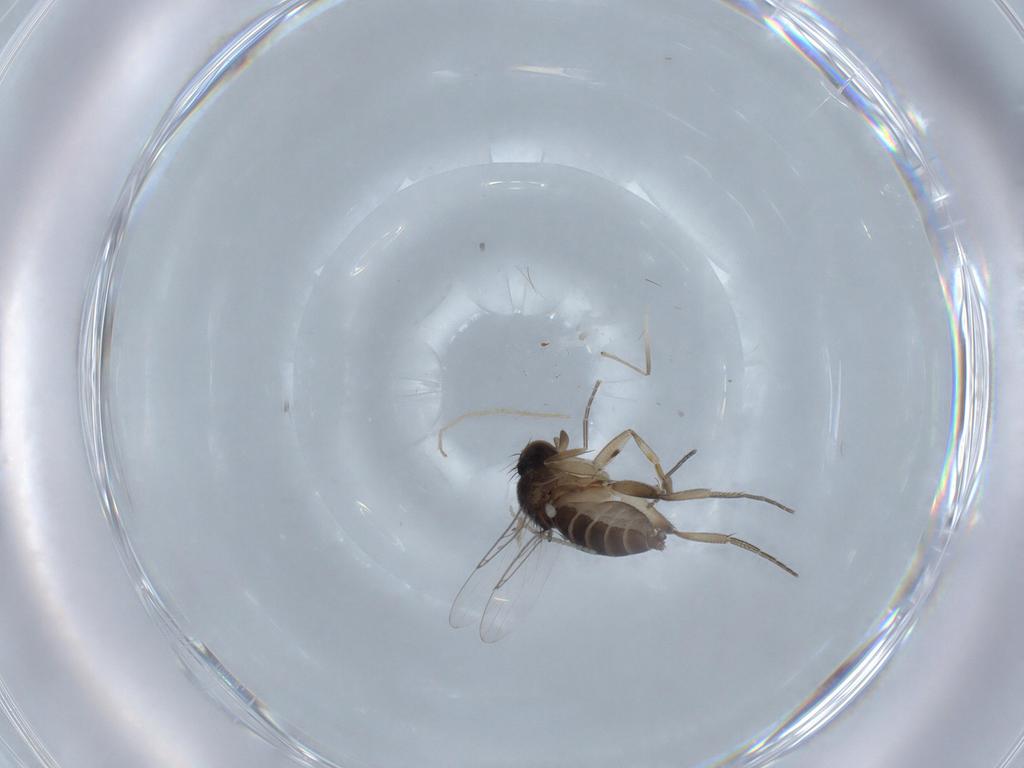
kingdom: Animalia
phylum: Arthropoda
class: Insecta
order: Diptera
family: Phoridae
